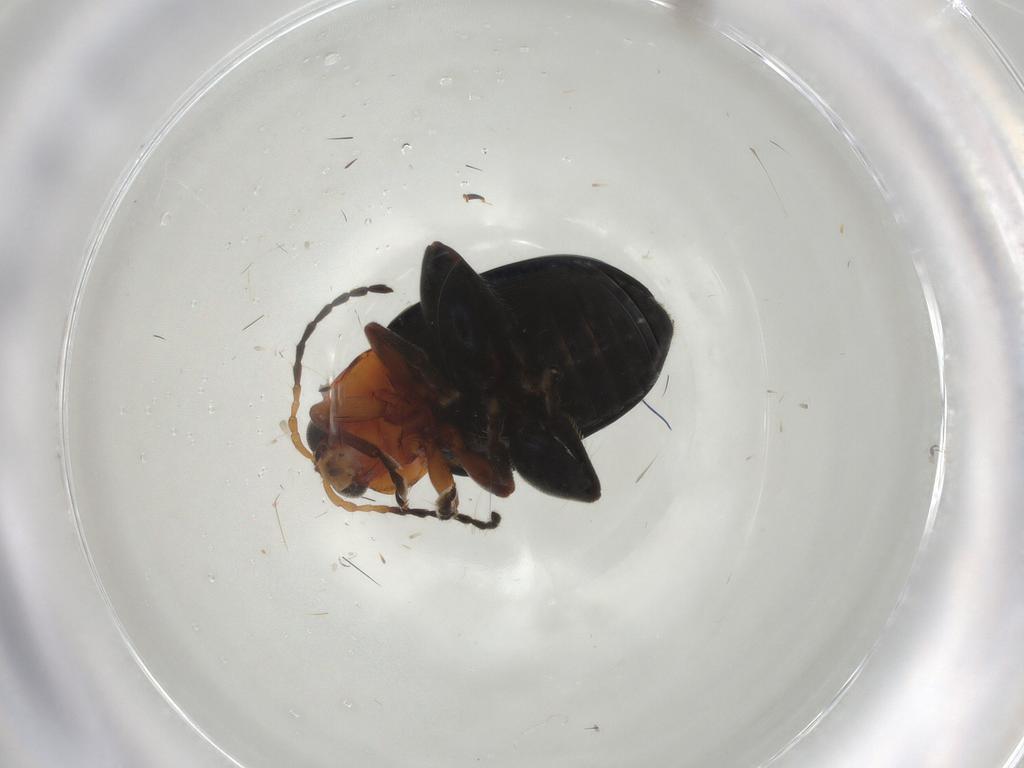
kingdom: Animalia
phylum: Arthropoda
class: Insecta
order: Coleoptera
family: Chrysomelidae
